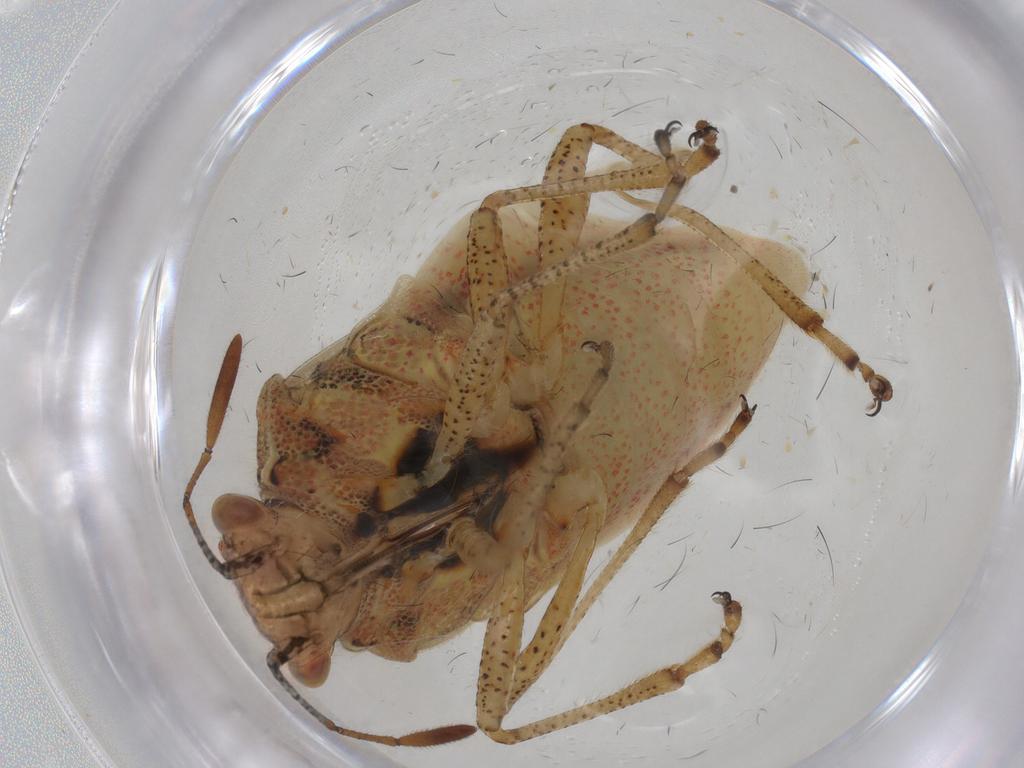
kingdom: Animalia
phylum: Arthropoda
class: Insecta
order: Hemiptera
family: Rhopalidae
